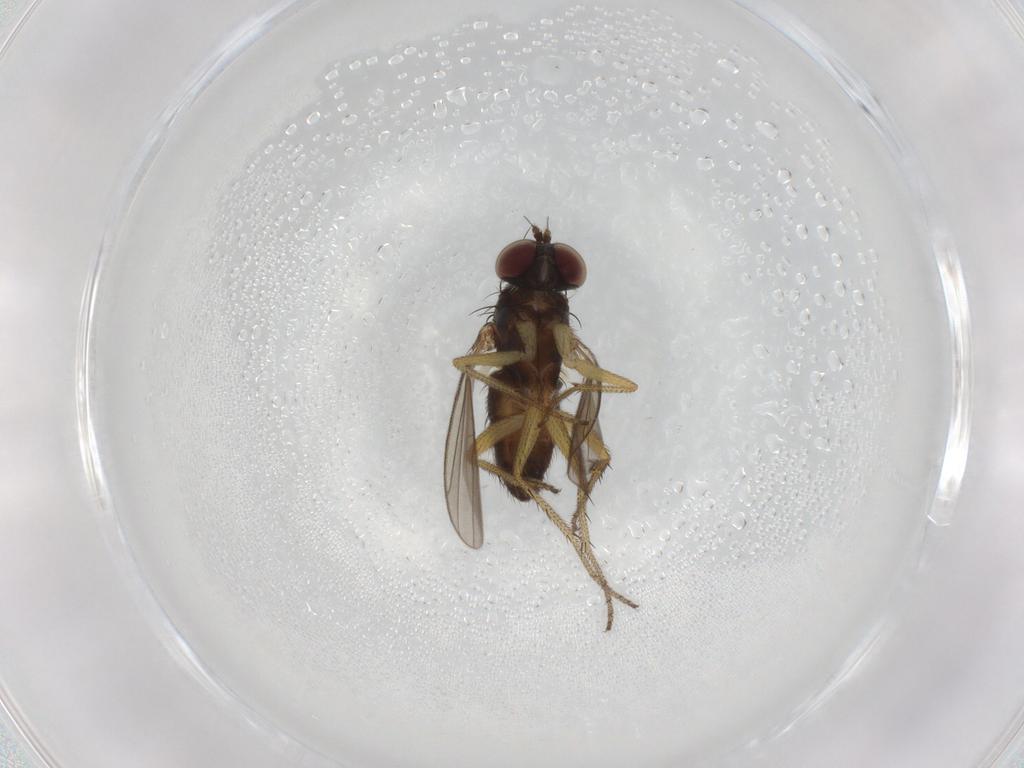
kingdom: Animalia
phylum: Arthropoda
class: Insecta
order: Diptera
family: Dolichopodidae
